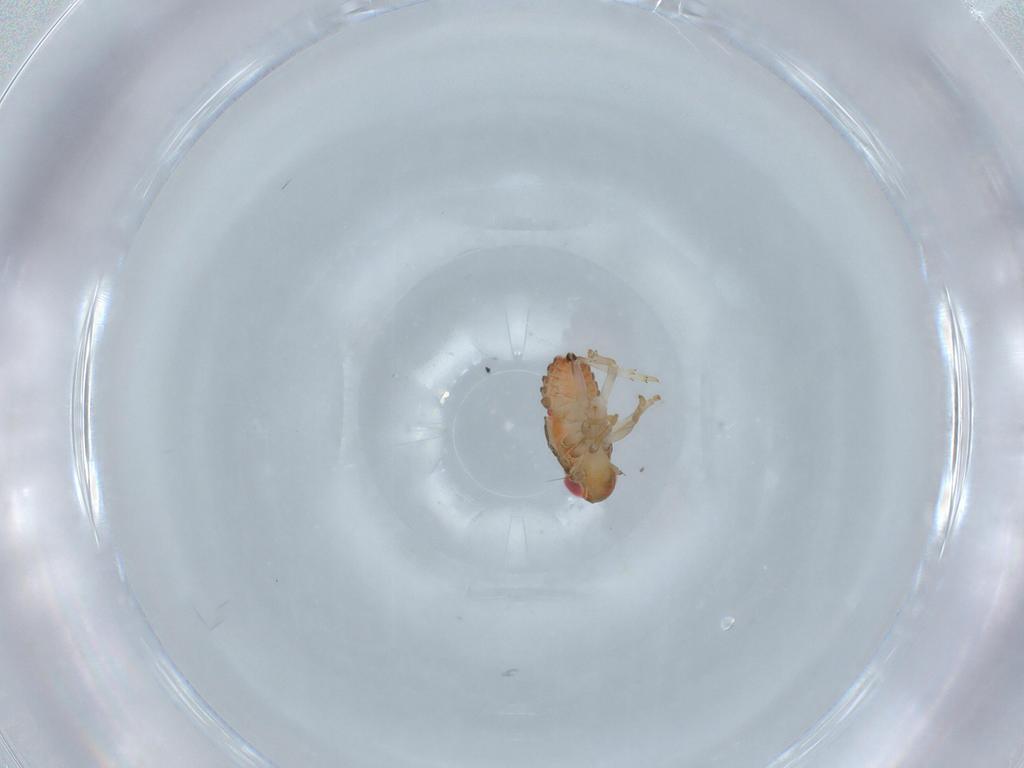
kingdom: Animalia
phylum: Arthropoda
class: Insecta
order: Hemiptera
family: Issidae
